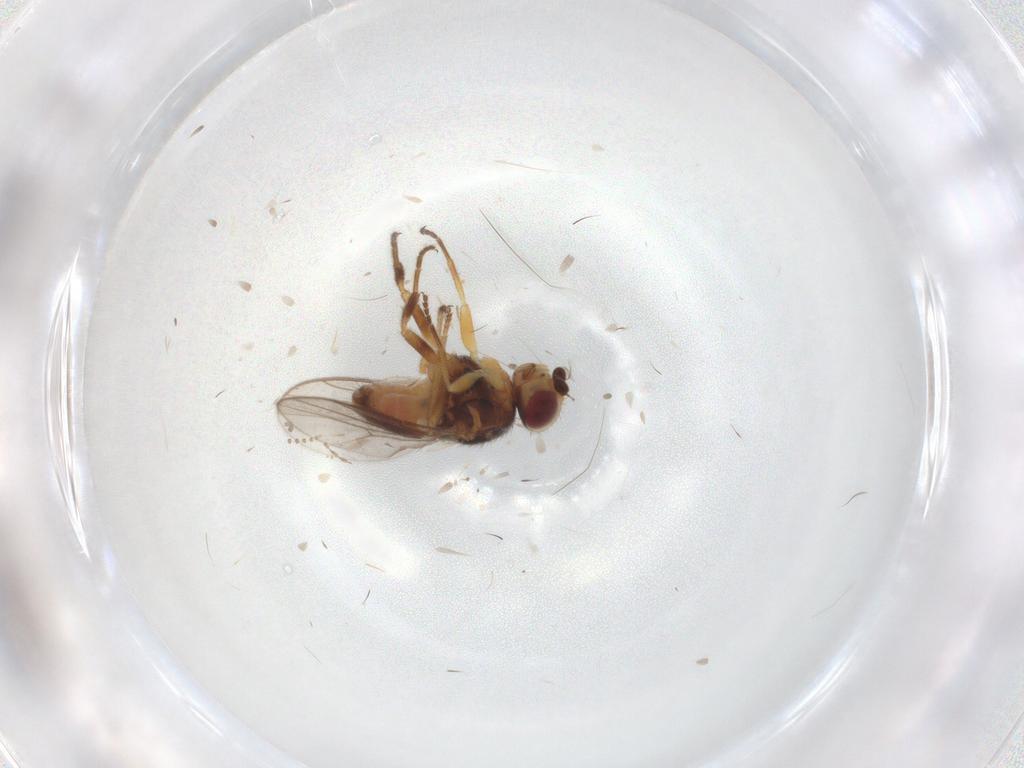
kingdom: Animalia
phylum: Arthropoda
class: Insecta
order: Diptera
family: Chloropidae
